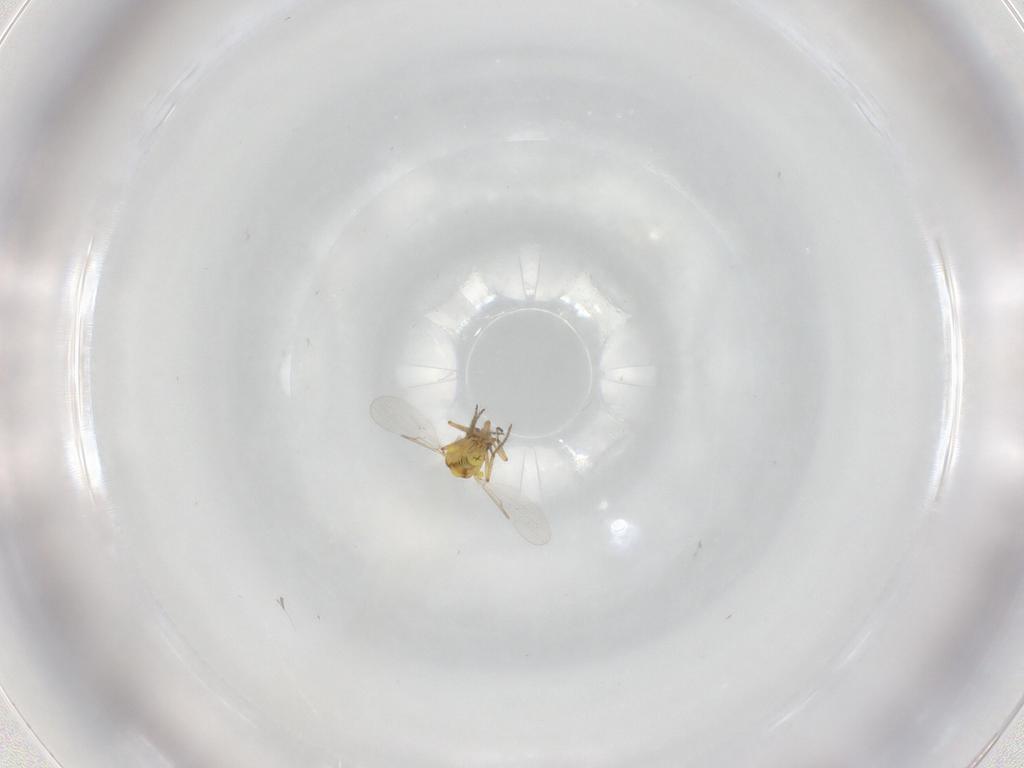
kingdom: Animalia
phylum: Arthropoda
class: Insecta
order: Diptera
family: Ceratopogonidae
